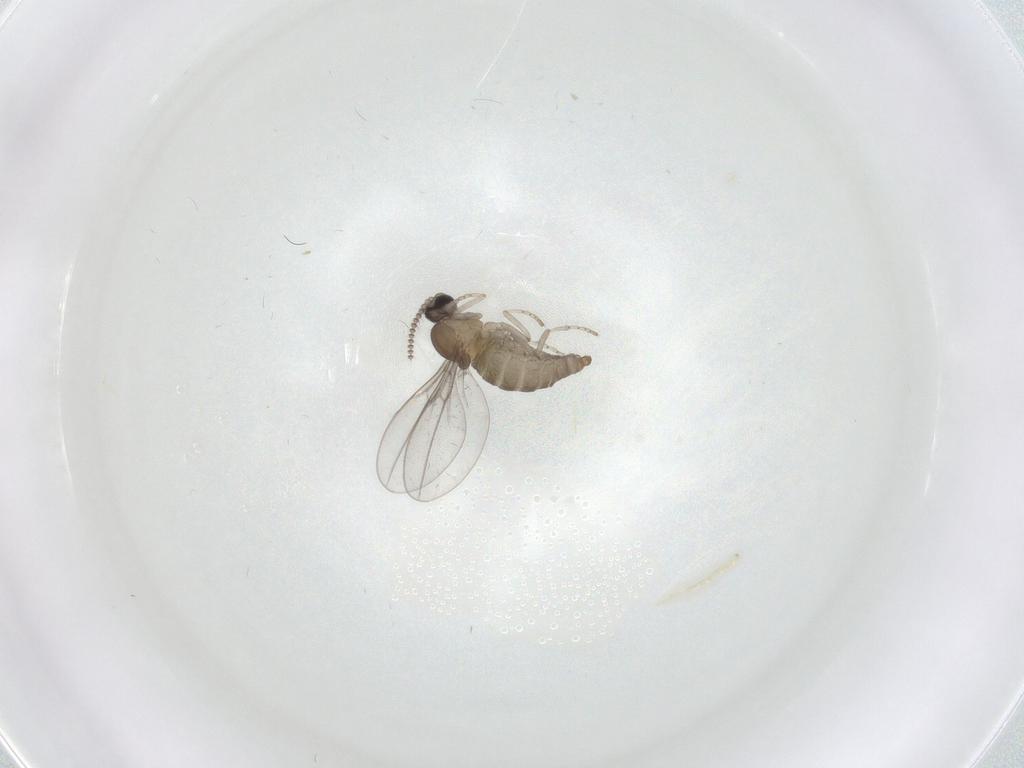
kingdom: Animalia
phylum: Arthropoda
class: Insecta
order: Diptera
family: Cecidomyiidae
